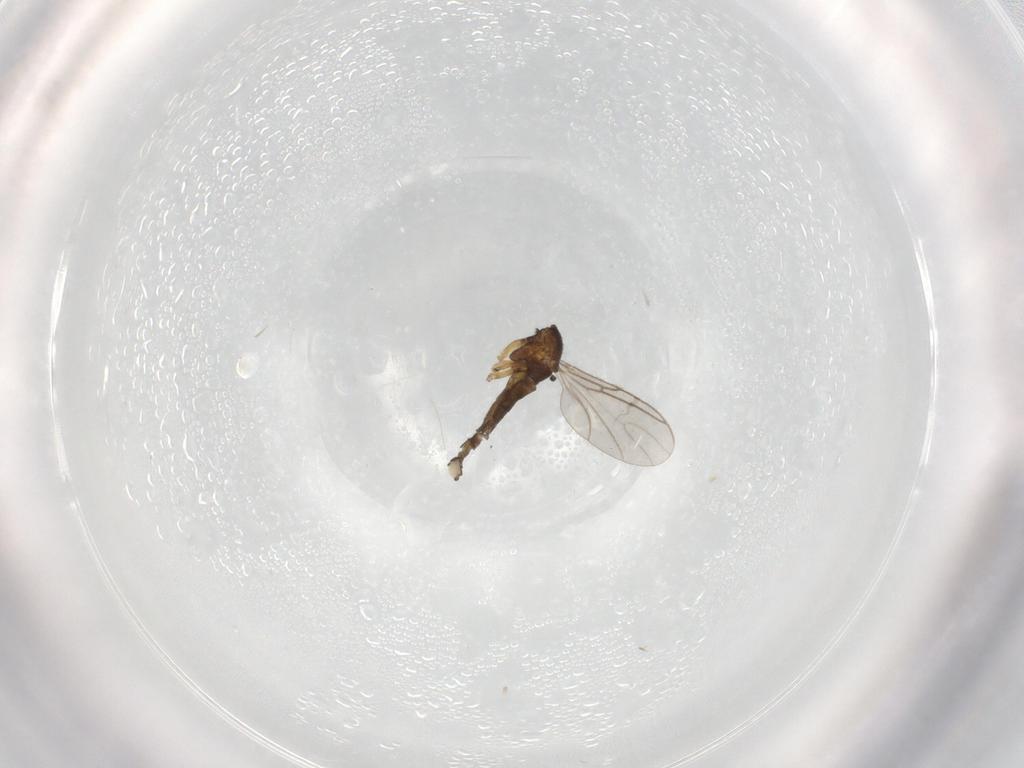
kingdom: Animalia
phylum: Arthropoda
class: Insecta
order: Diptera
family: Sciaridae
